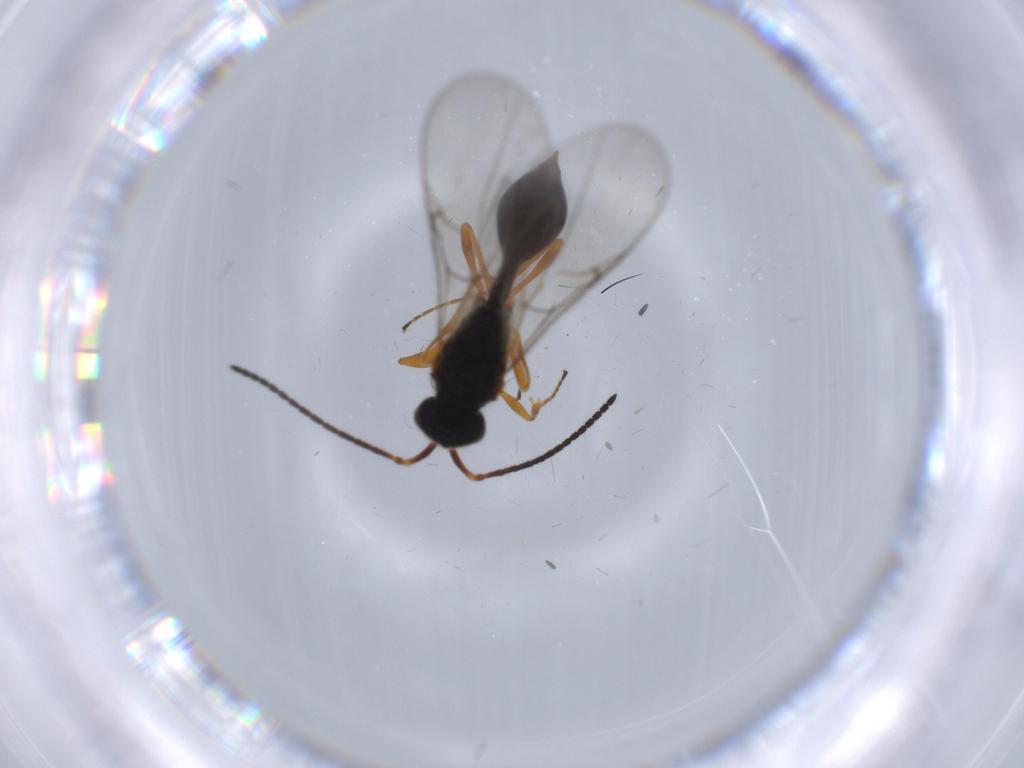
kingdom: Animalia
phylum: Arthropoda
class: Insecta
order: Hymenoptera
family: Diapriidae
